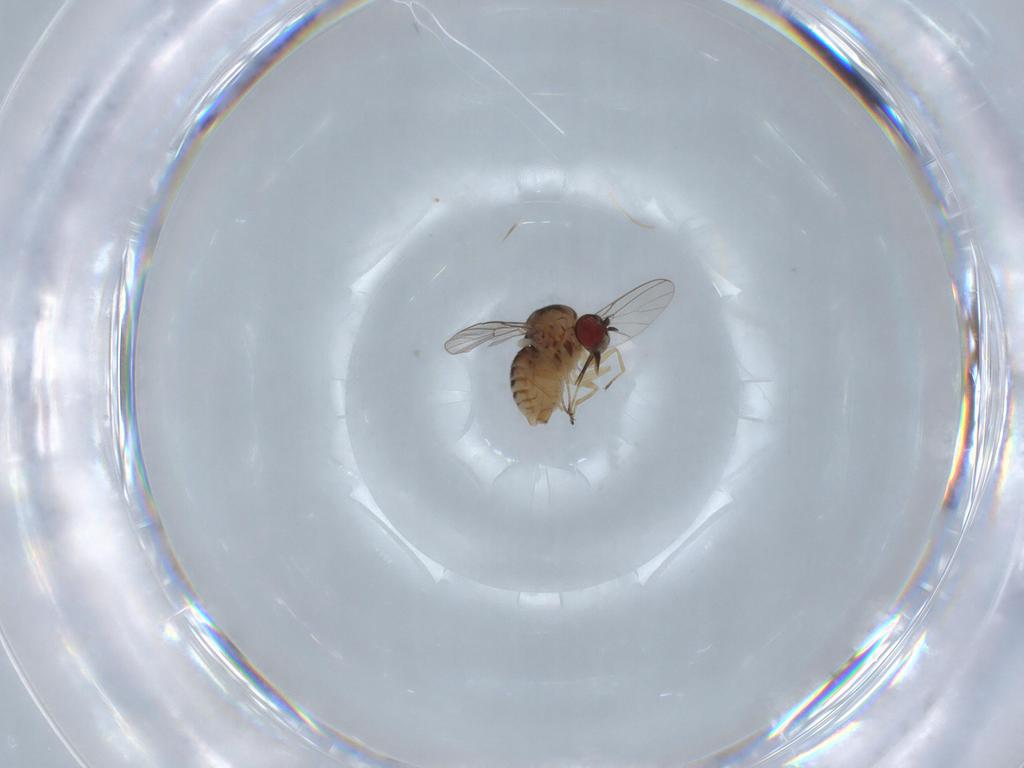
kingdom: Animalia
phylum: Arthropoda
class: Insecta
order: Diptera
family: Mythicomyiidae
